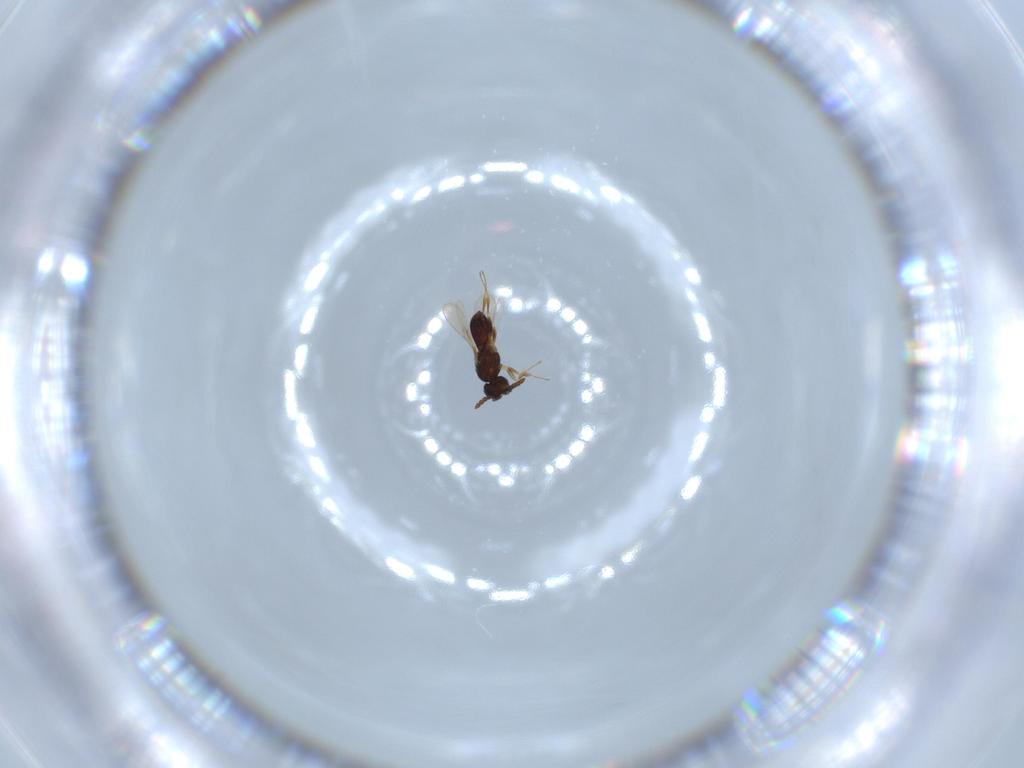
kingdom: Animalia
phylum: Arthropoda
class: Insecta
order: Hymenoptera
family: Scelionidae
